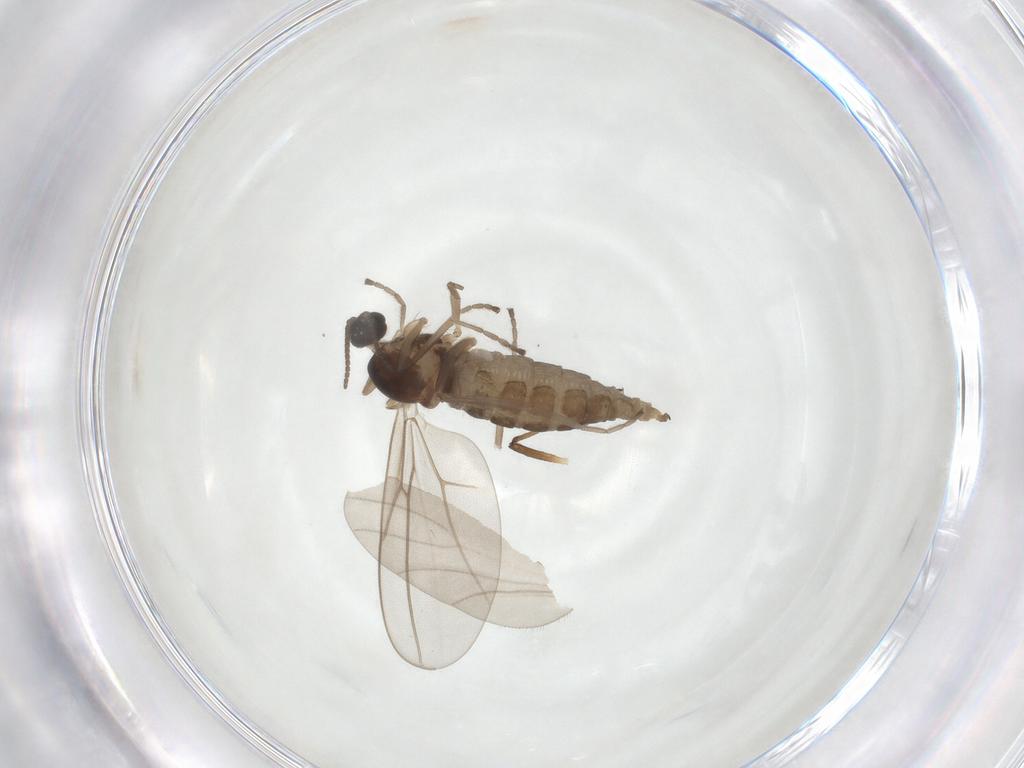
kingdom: Animalia
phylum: Arthropoda
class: Insecta
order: Diptera
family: Cecidomyiidae
